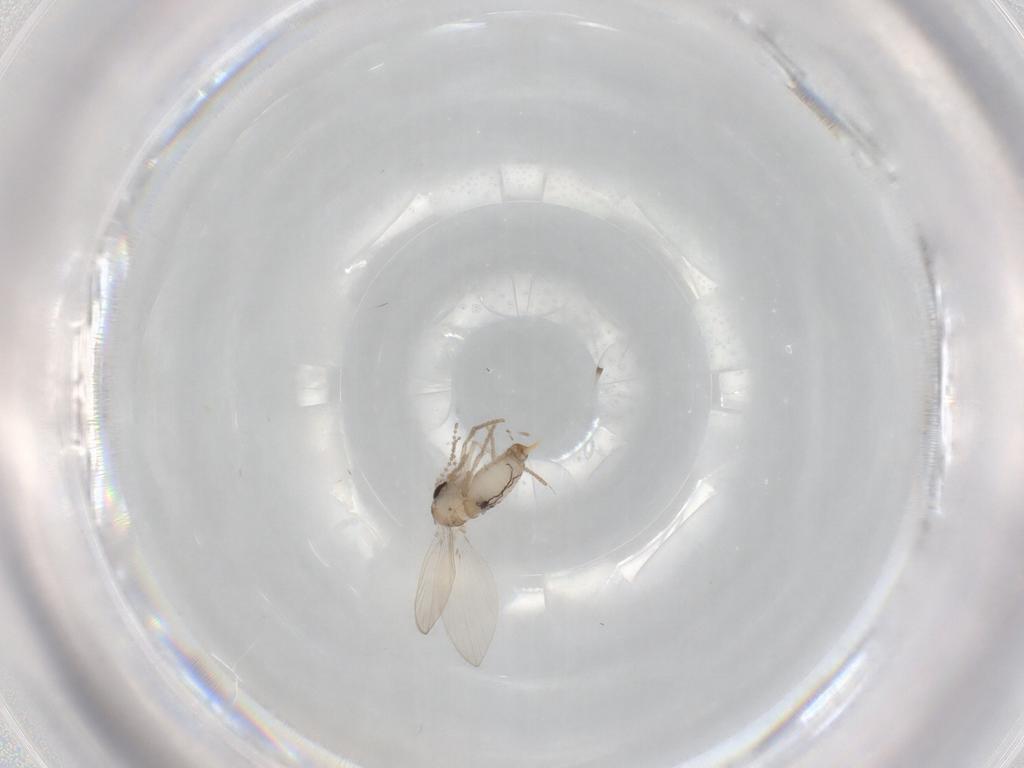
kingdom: Animalia
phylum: Arthropoda
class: Insecta
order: Diptera
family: Psychodidae
